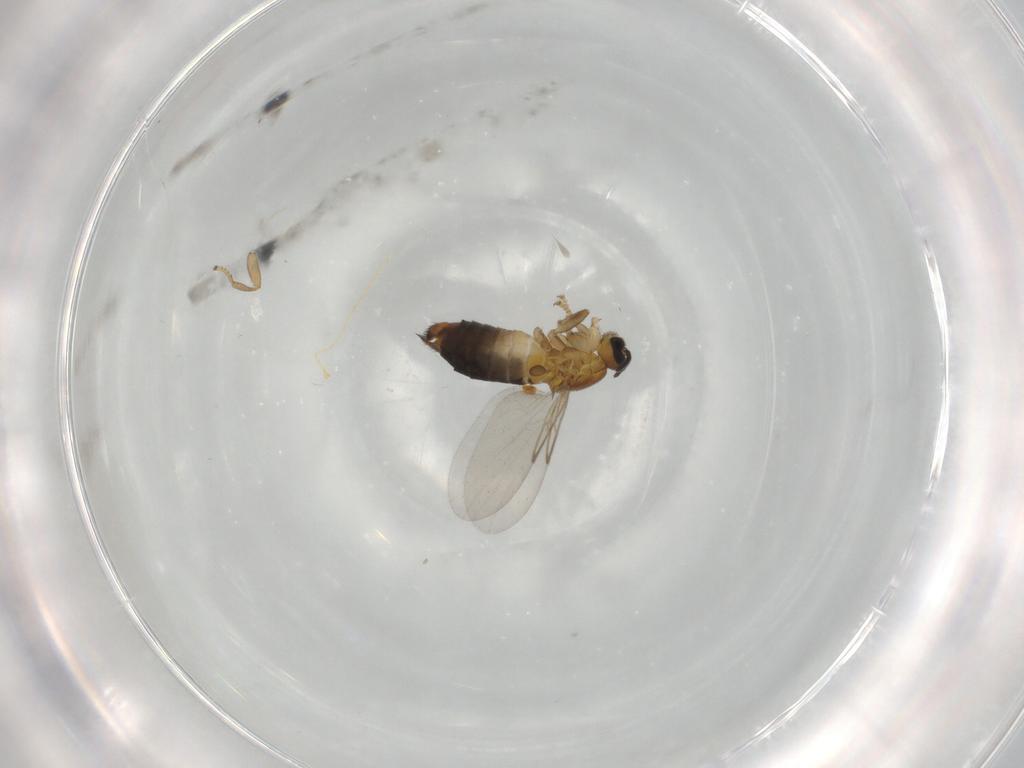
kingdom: Animalia
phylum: Arthropoda
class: Insecta
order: Diptera
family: Scatopsidae
